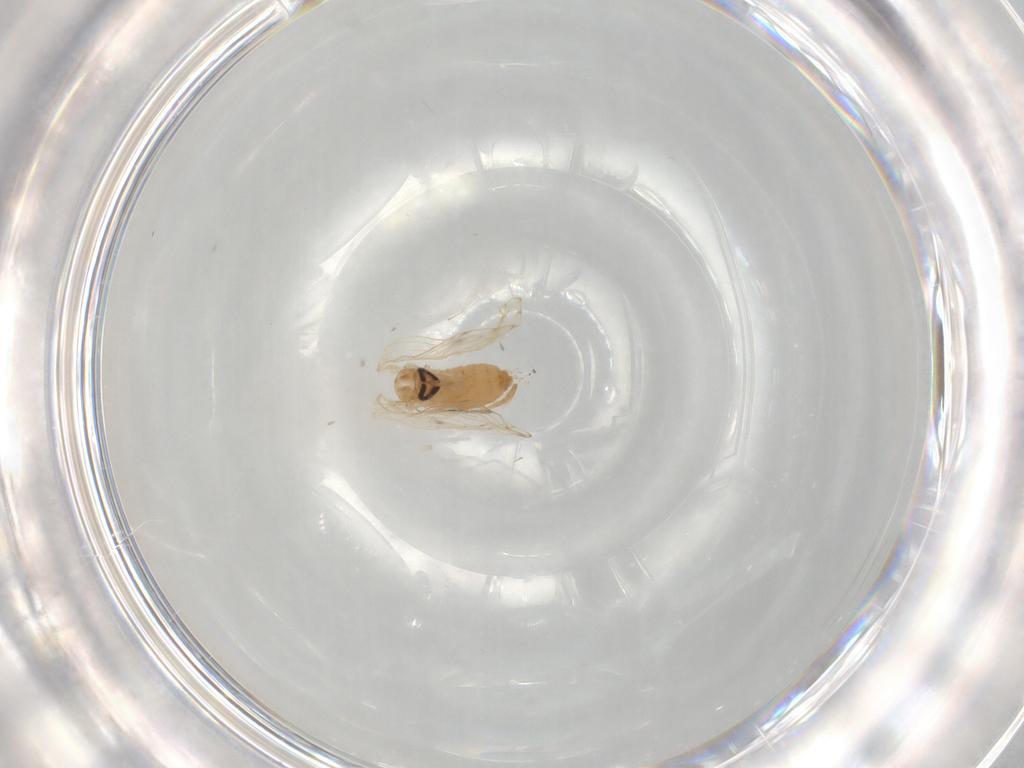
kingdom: Animalia
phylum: Arthropoda
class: Insecta
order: Diptera
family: Psychodidae
